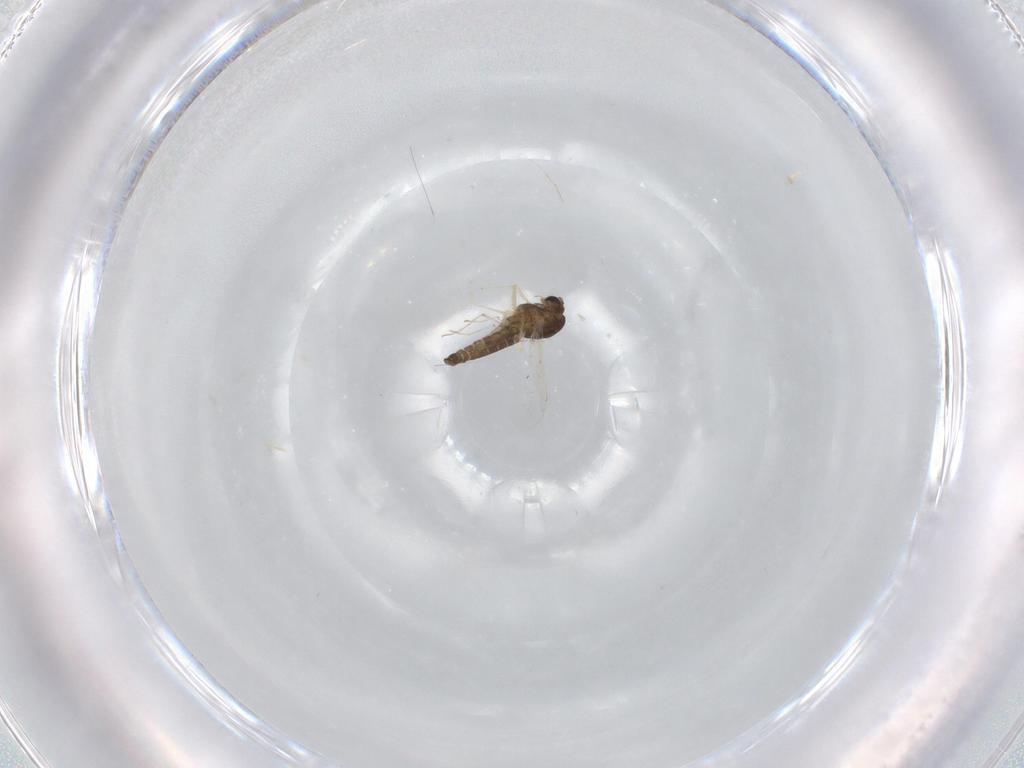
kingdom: Animalia
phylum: Arthropoda
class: Insecta
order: Diptera
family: Chironomidae
